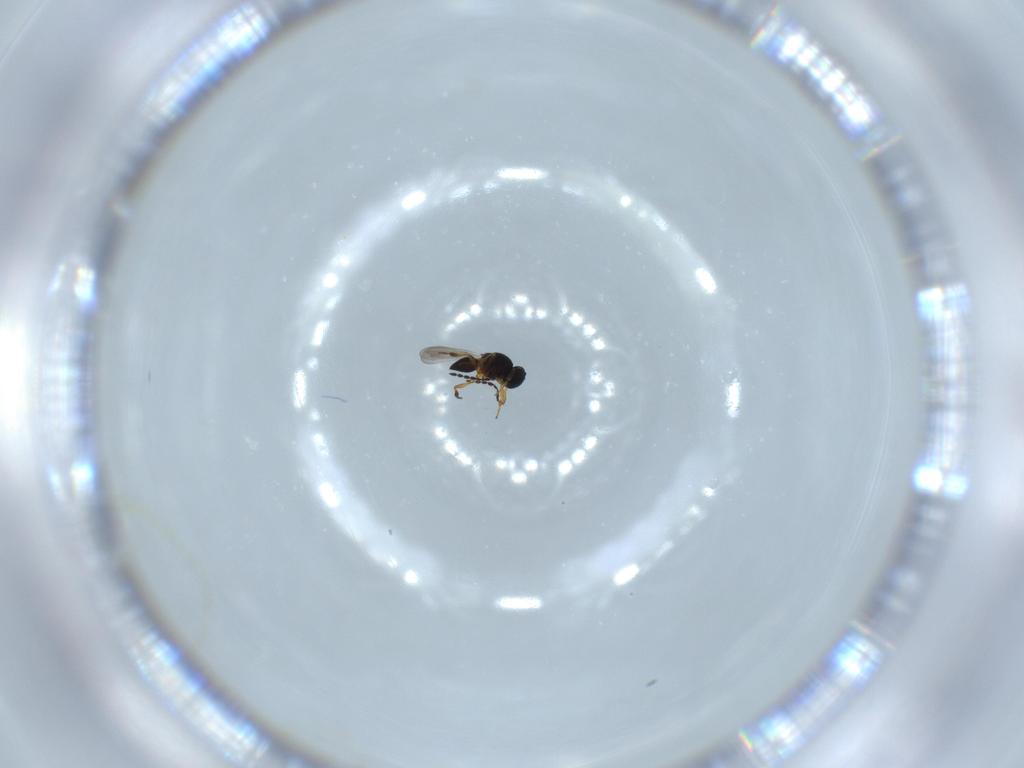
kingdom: Animalia
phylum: Arthropoda
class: Insecta
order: Hymenoptera
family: Platygastridae
